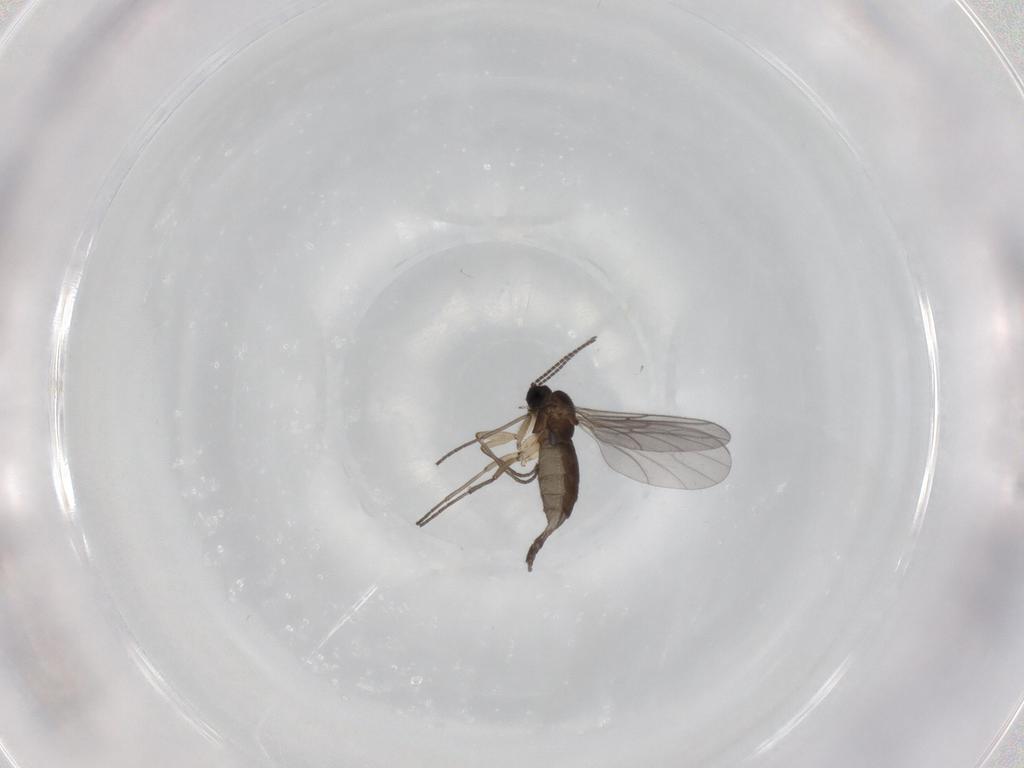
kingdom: Animalia
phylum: Arthropoda
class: Insecta
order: Diptera
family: Sciaridae
